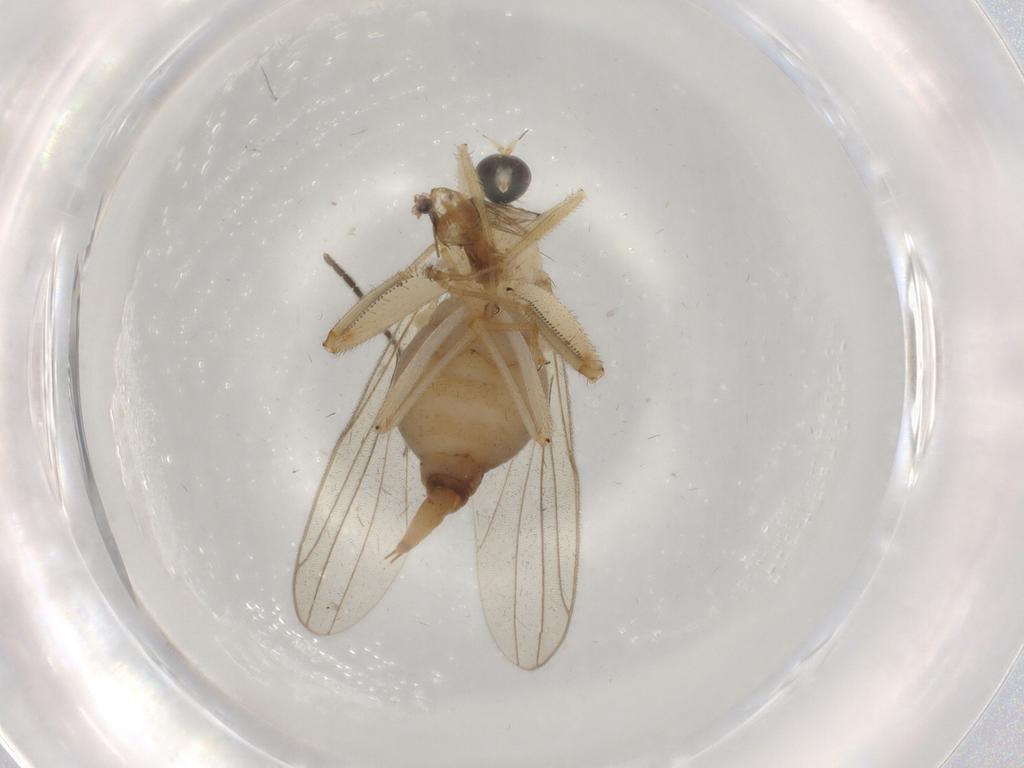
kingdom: Animalia
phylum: Arthropoda
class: Insecta
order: Diptera
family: Hybotidae
